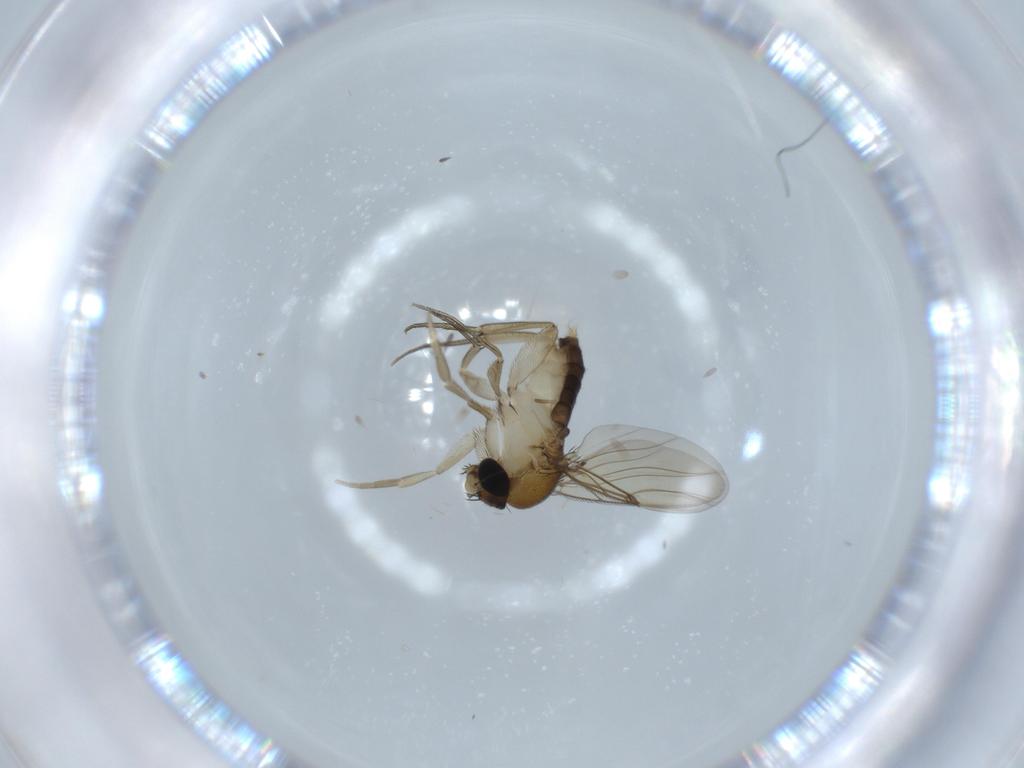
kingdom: Animalia
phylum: Arthropoda
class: Insecta
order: Diptera
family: Phoridae
